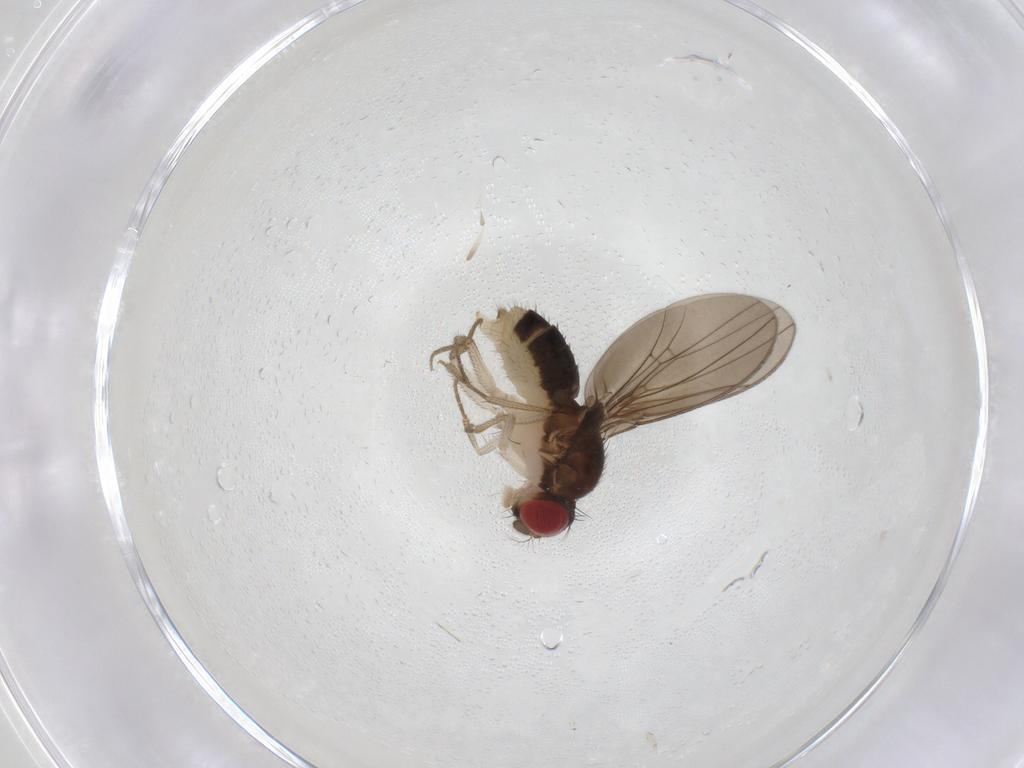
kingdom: Animalia
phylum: Arthropoda
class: Insecta
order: Diptera
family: Drosophilidae
